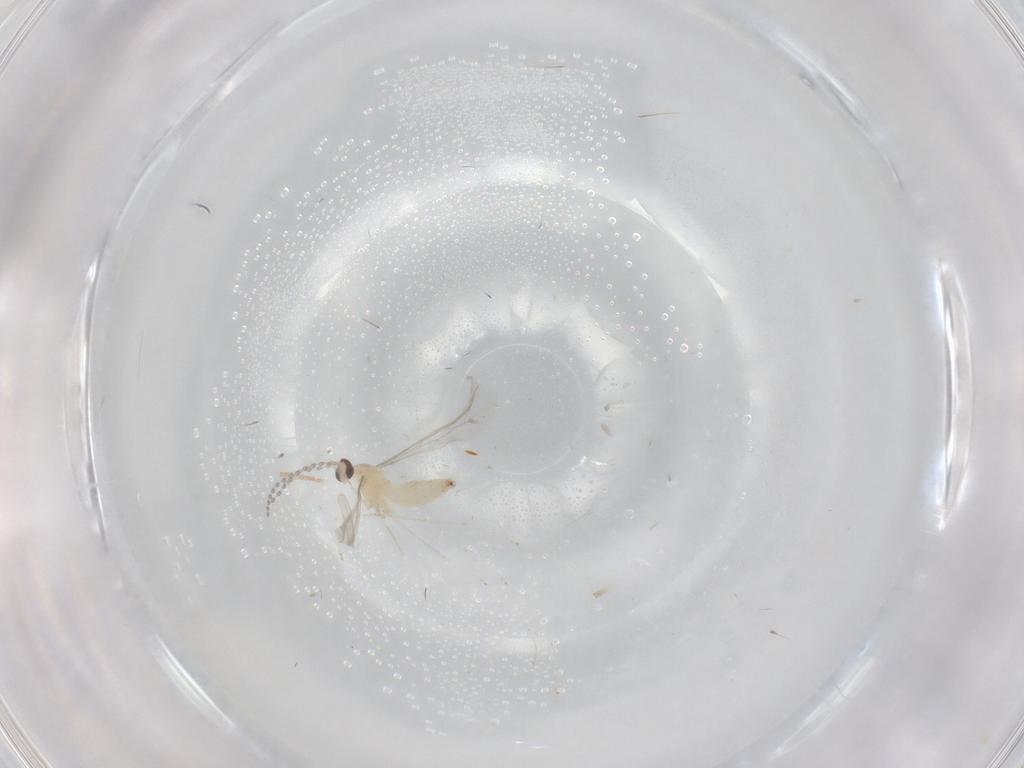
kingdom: Animalia
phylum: Arthropoda
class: Insecta
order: Diptera
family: Cecidomyiidae
